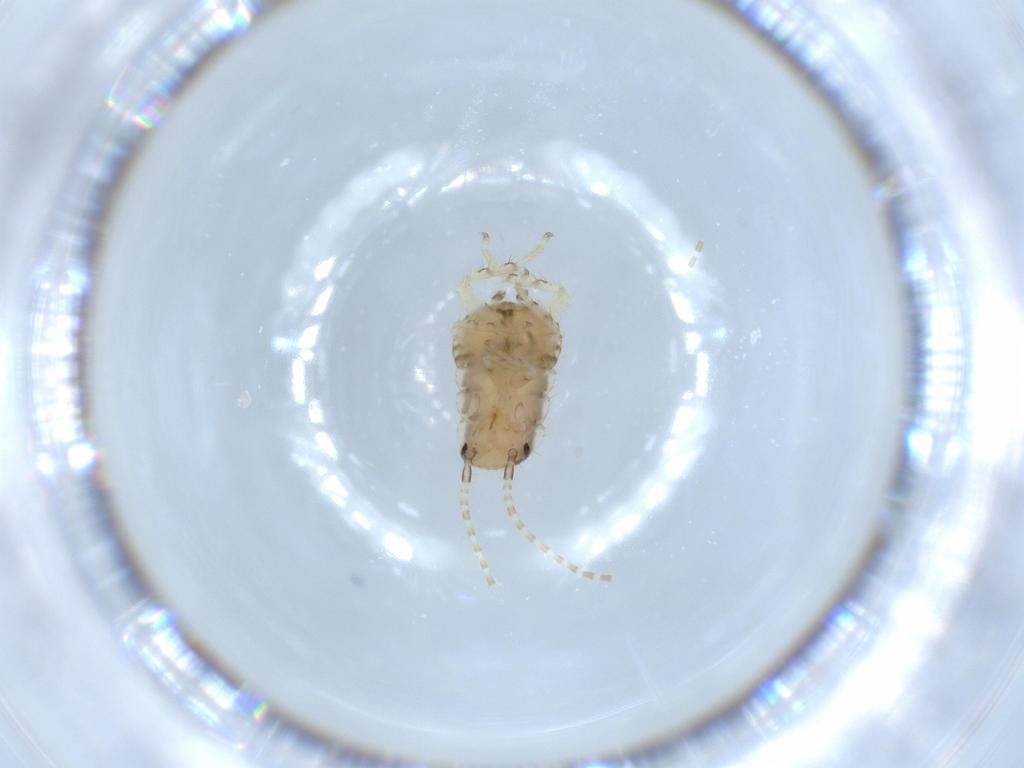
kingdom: Animalia
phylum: Arthropoda
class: Insecta
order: Blattodea
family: Ectobiidae
